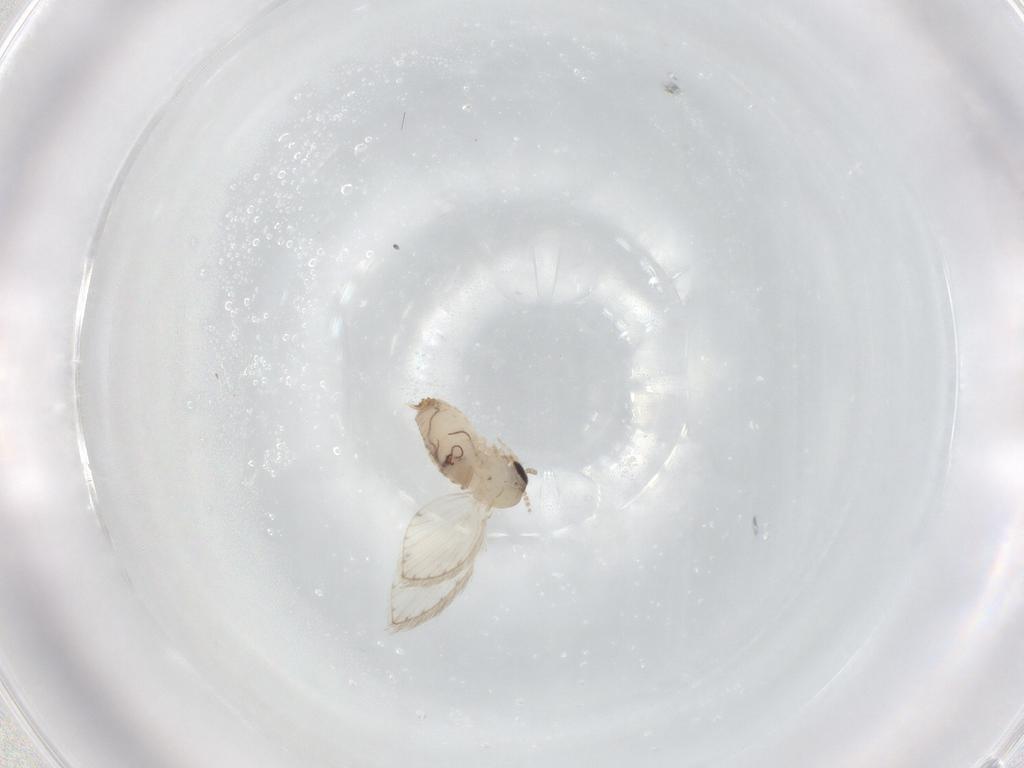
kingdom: Animalia
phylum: Arthropoda
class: Insecta
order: Diptera
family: Psychodidae
